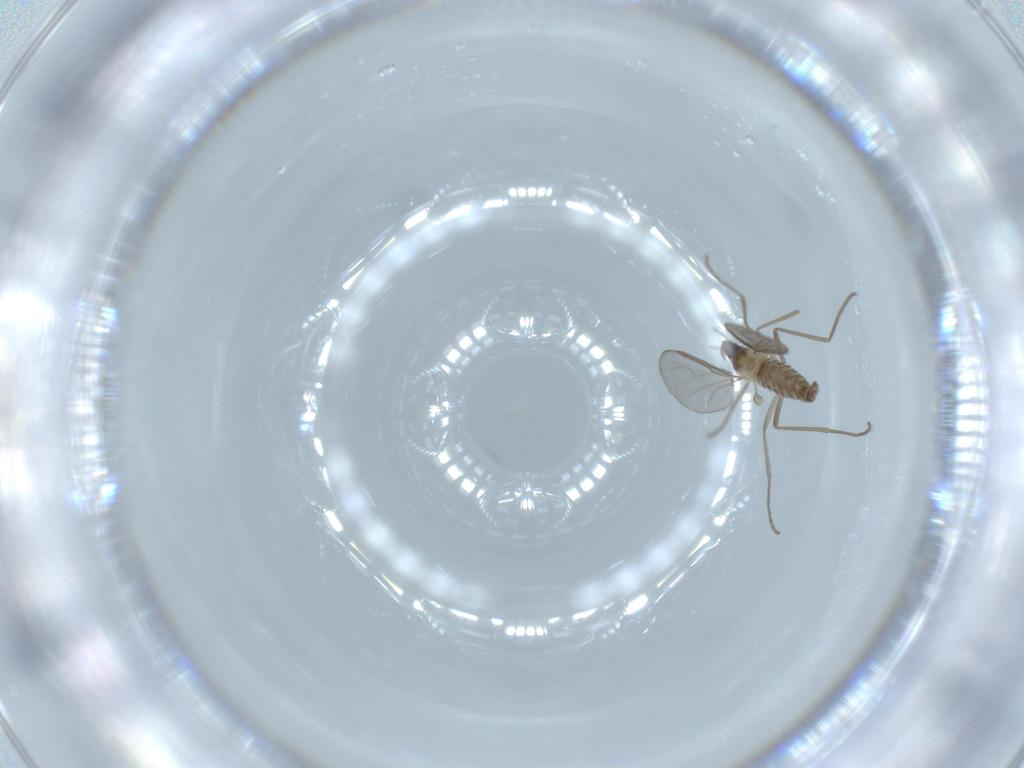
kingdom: Animalia
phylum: Arthropoda
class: Insecta
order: Diptera
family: Cecidomyiidae
